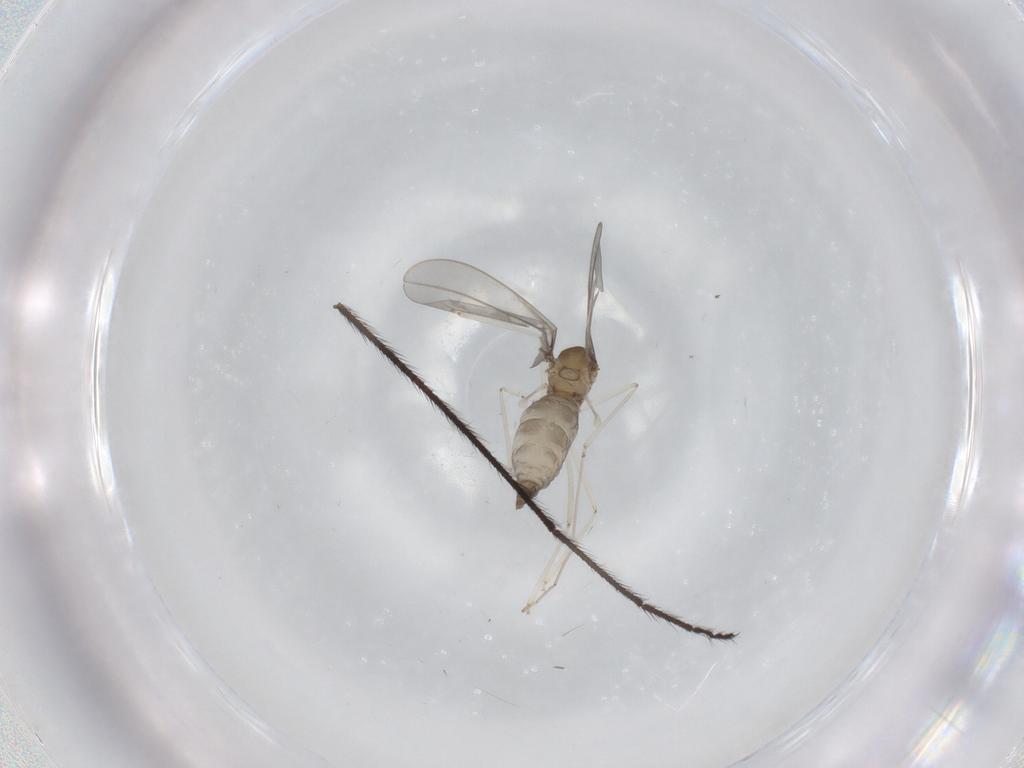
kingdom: Animalia
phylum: Arthropoda
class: Insecta
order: Diptera
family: Cecidomyiidae
